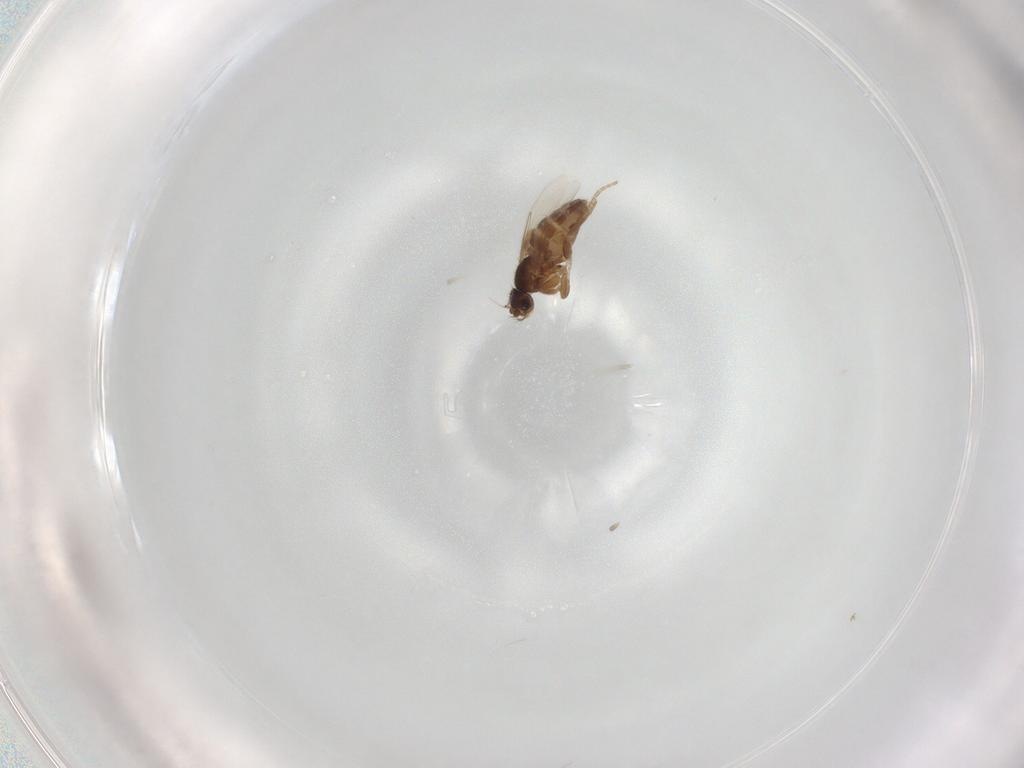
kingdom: Animalia
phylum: Arthropoda
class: Insecta
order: Diptera
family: Phoridae
